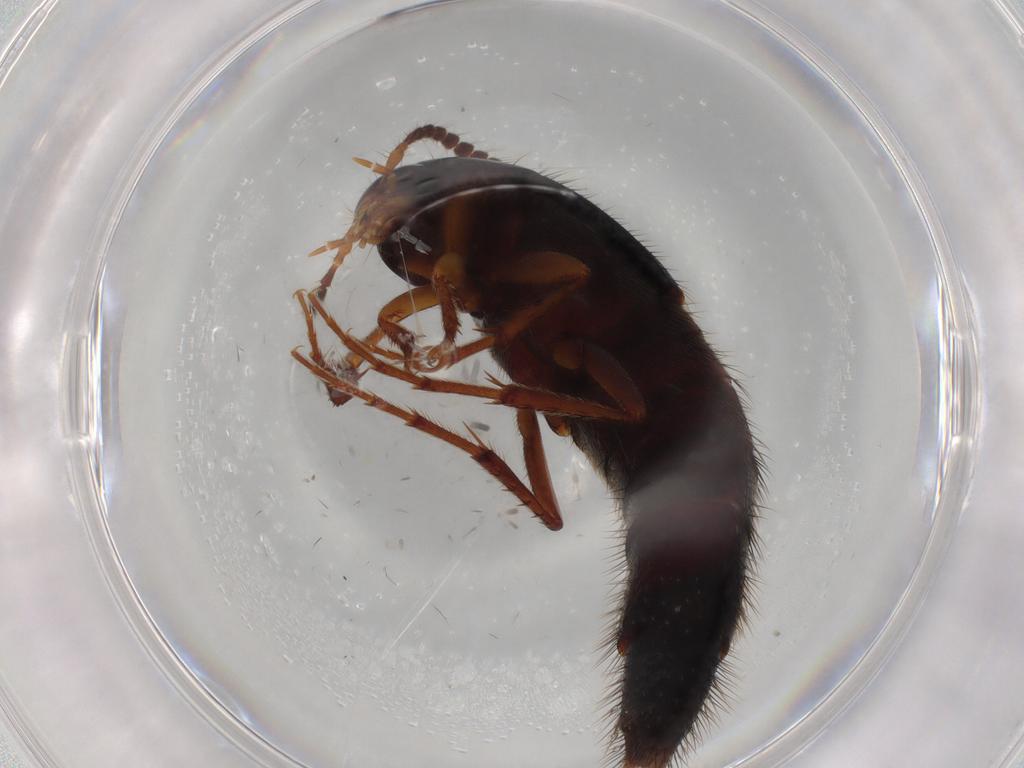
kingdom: Animalia
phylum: Arthropoda
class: Insecta
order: Coleoptera
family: Staphylinidae
